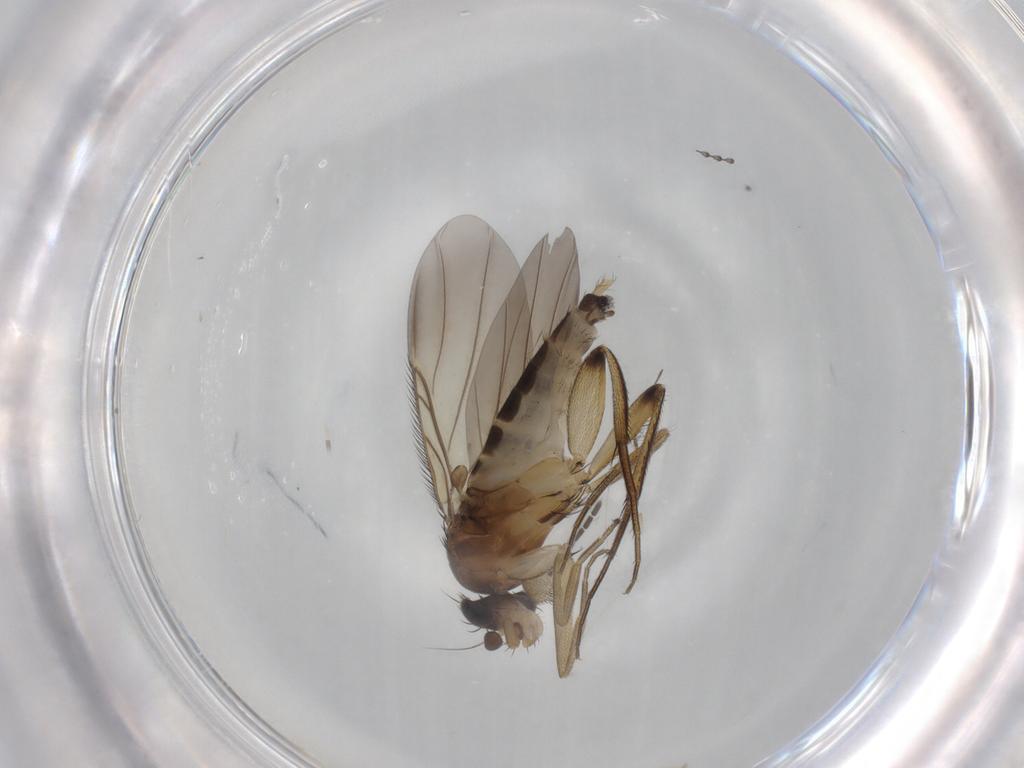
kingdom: Animalia
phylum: Arthropoda
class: Insecta
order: Diptera
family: Phoridae
